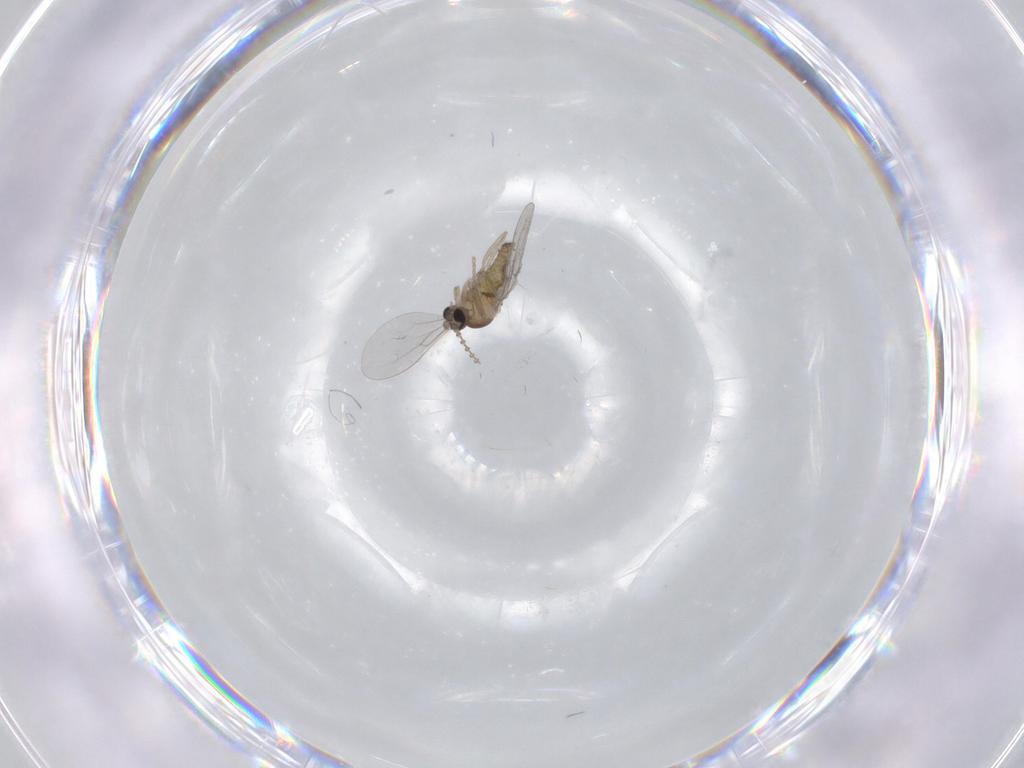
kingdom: Animalia
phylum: Arthropoda
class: Insecta
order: Diptera
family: Cecidomyiidae
